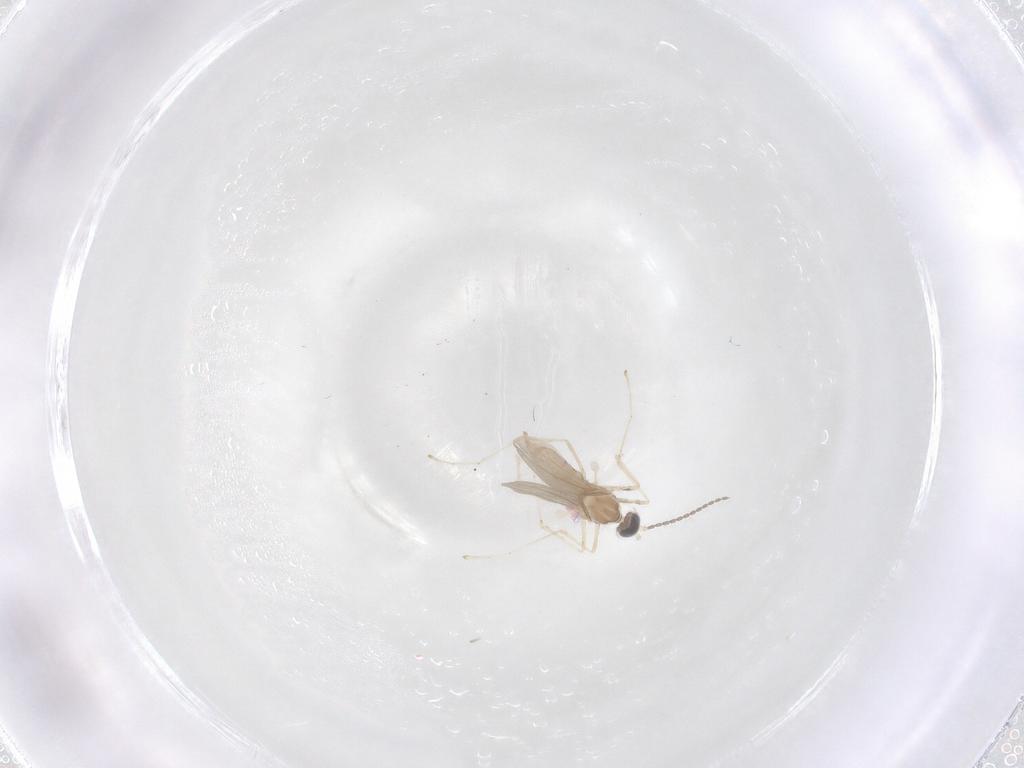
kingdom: Animalia
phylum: Arthropoda
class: Insecta
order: Diptera
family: Cecidomyiidae
